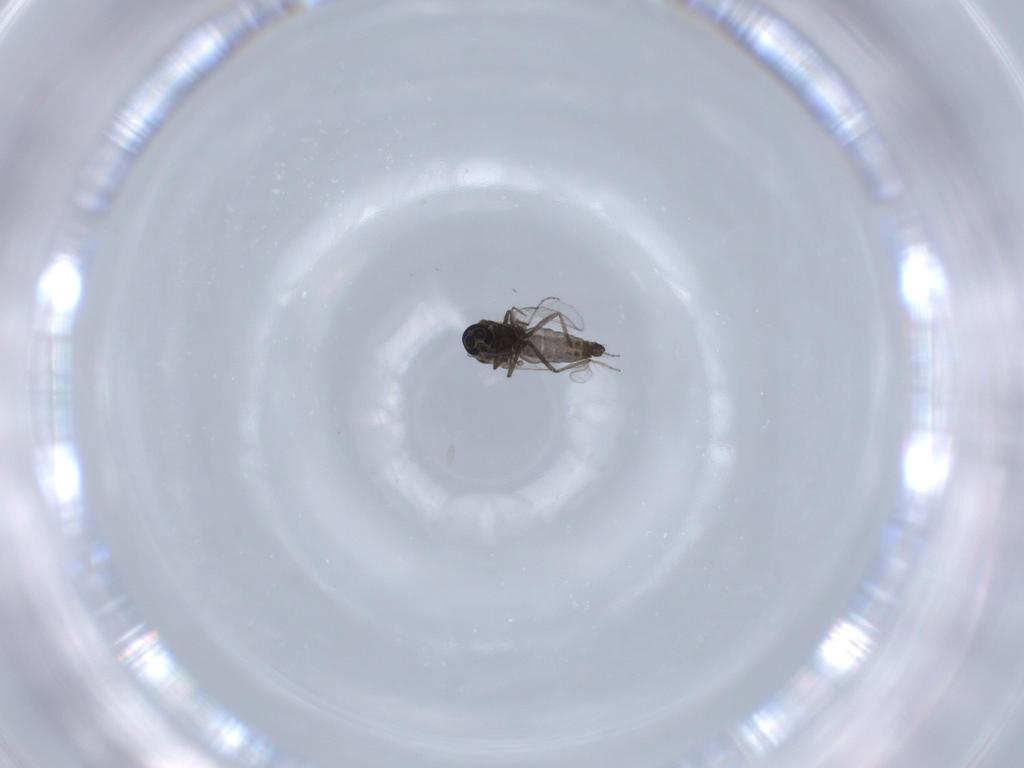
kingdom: Animalia
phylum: Arthropoda
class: Insecta
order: Diptera
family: Ceratopogonidae
